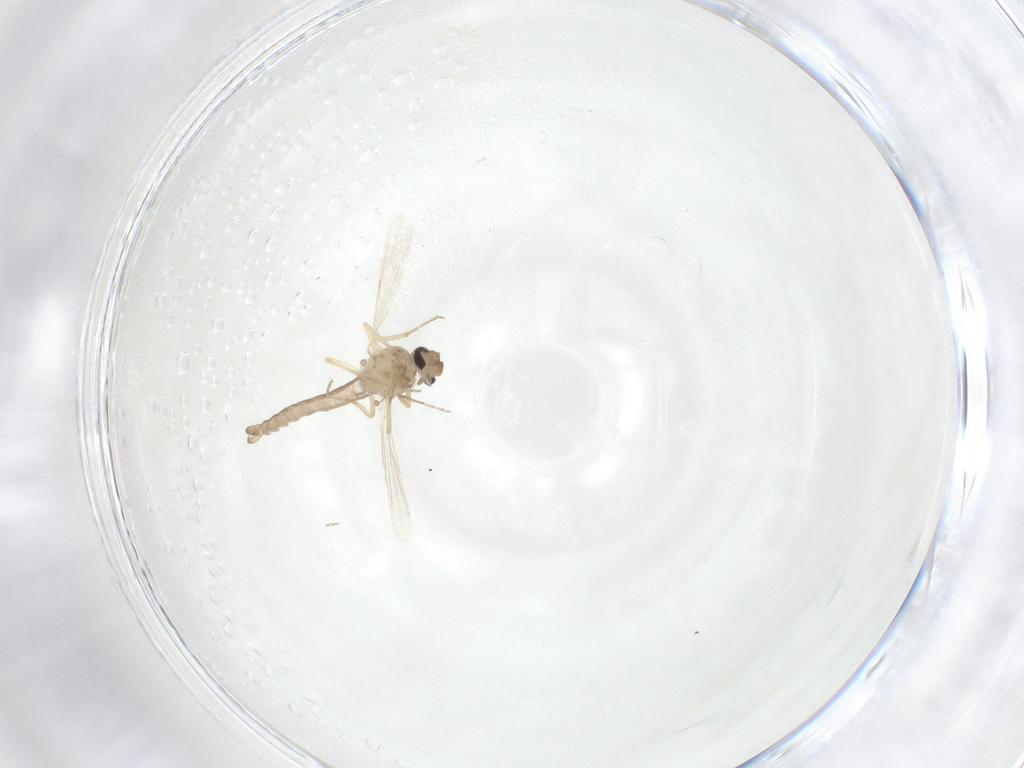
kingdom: Animalia
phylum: Arthropoda
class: Insecta
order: Diptera
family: Ceratopogonidae
